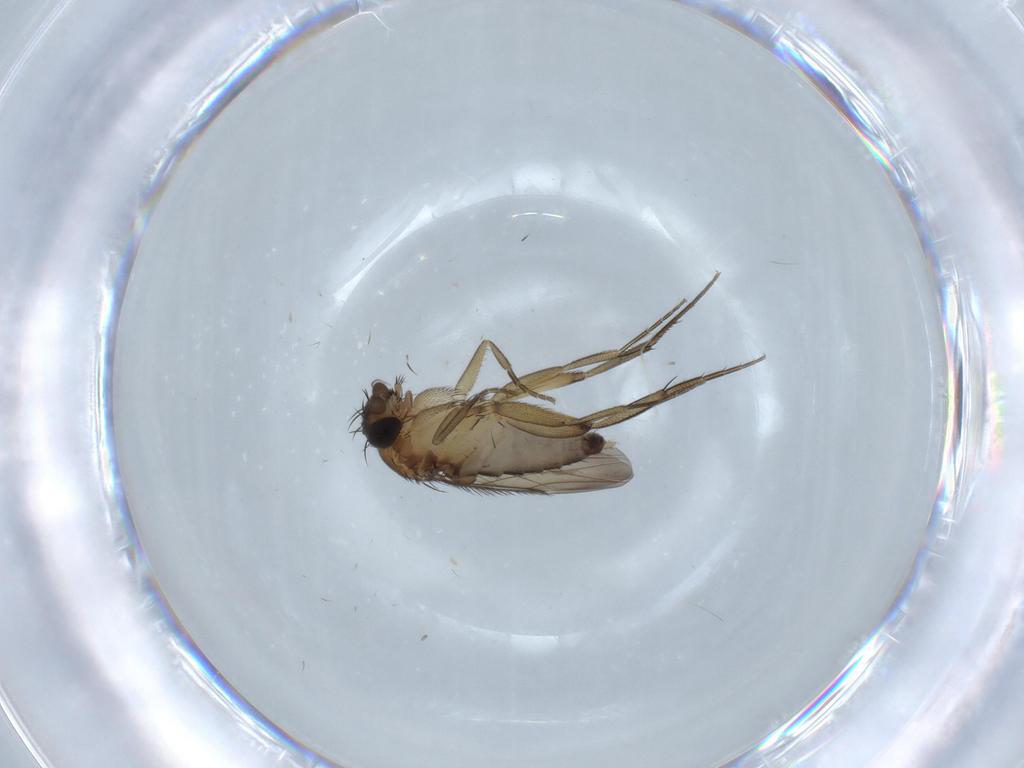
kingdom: Animalia
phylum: Arthropoda
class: Insecta
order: Diptera
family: Phoridae
